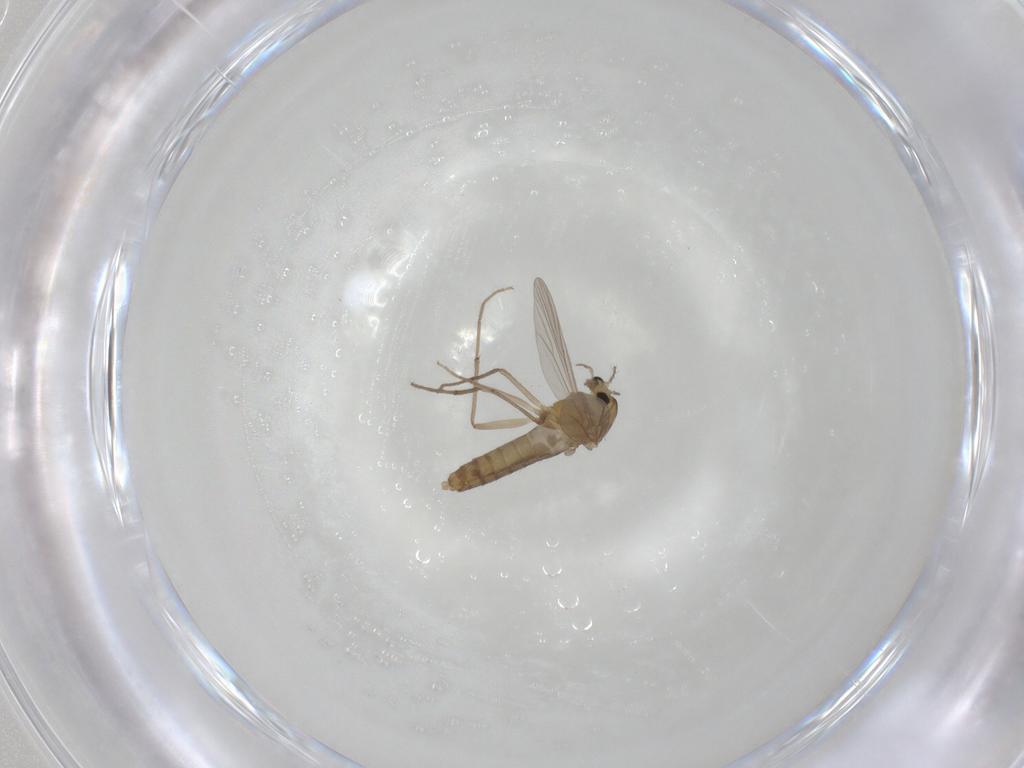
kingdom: Animalia
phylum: Arthropoda
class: Insecta
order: Diptera
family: Chironomidae
